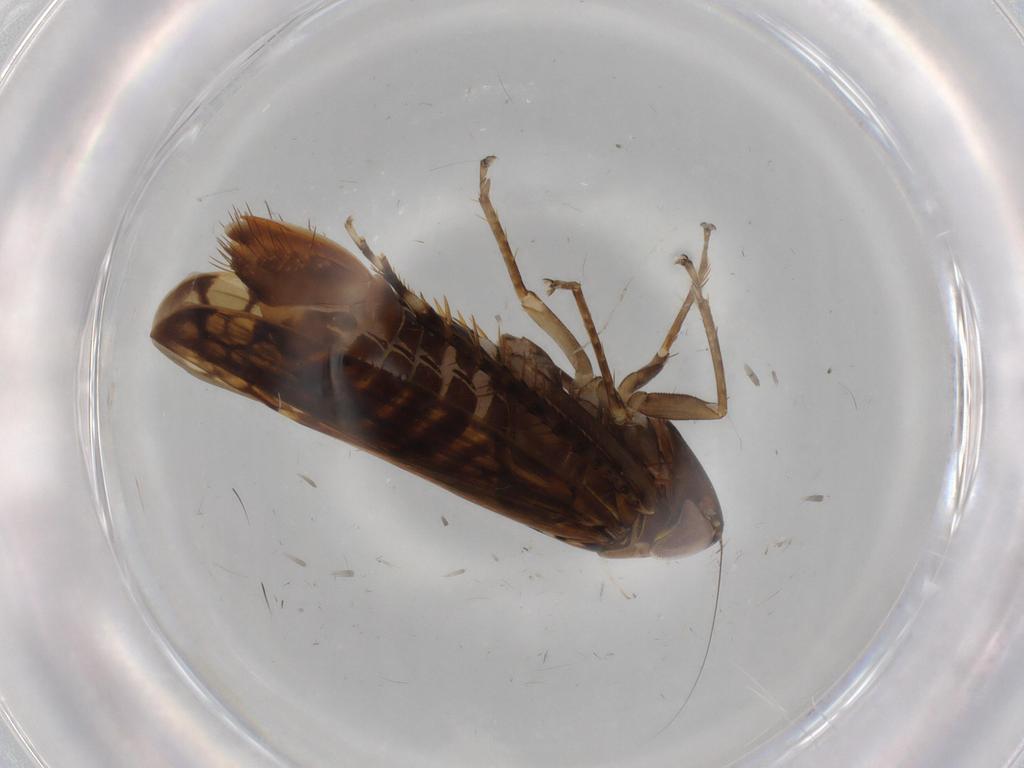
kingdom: Animalia
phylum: Arthropoda
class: Insecta
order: Hemiptera
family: Cicadellidae
